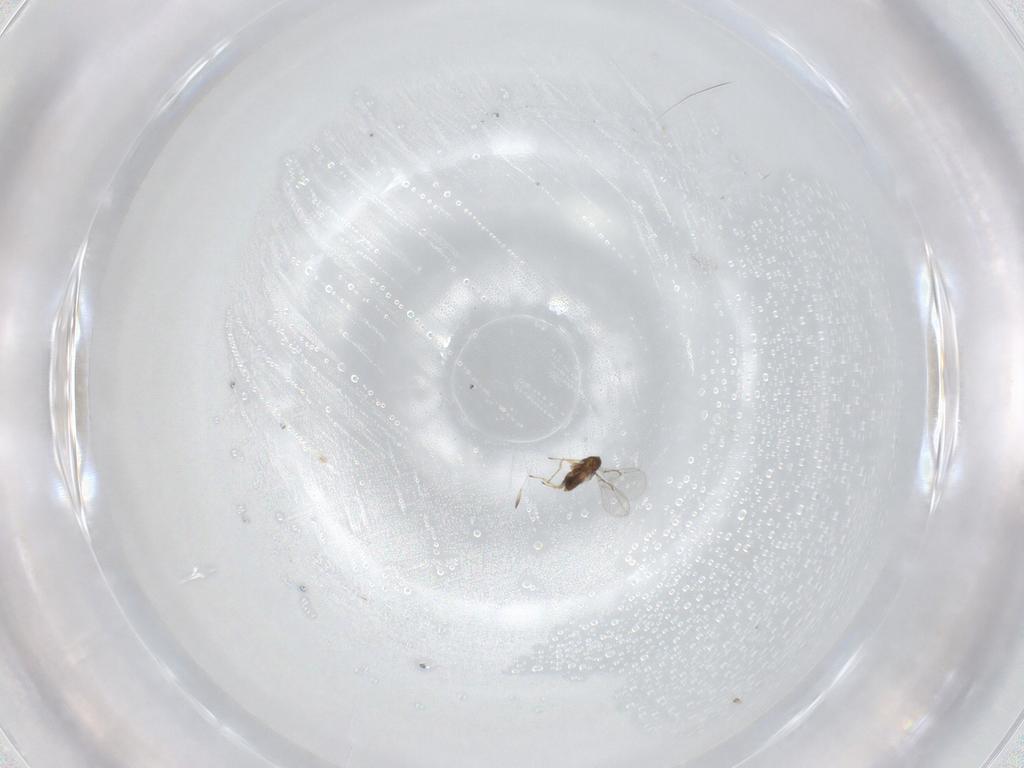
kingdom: Animalia
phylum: Arthropoda
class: Insecta
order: Hymenoptera
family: Trichogrammatidae
